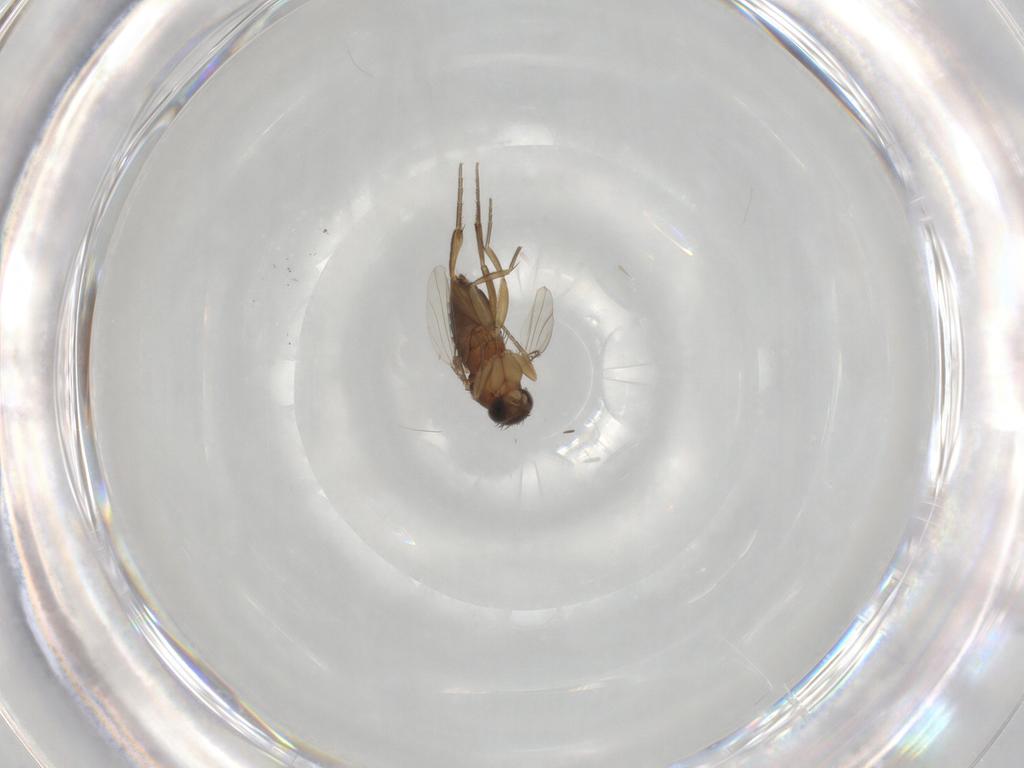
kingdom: Animalia
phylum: Arthropoda
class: Insecta
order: Diptera
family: Phoridae
